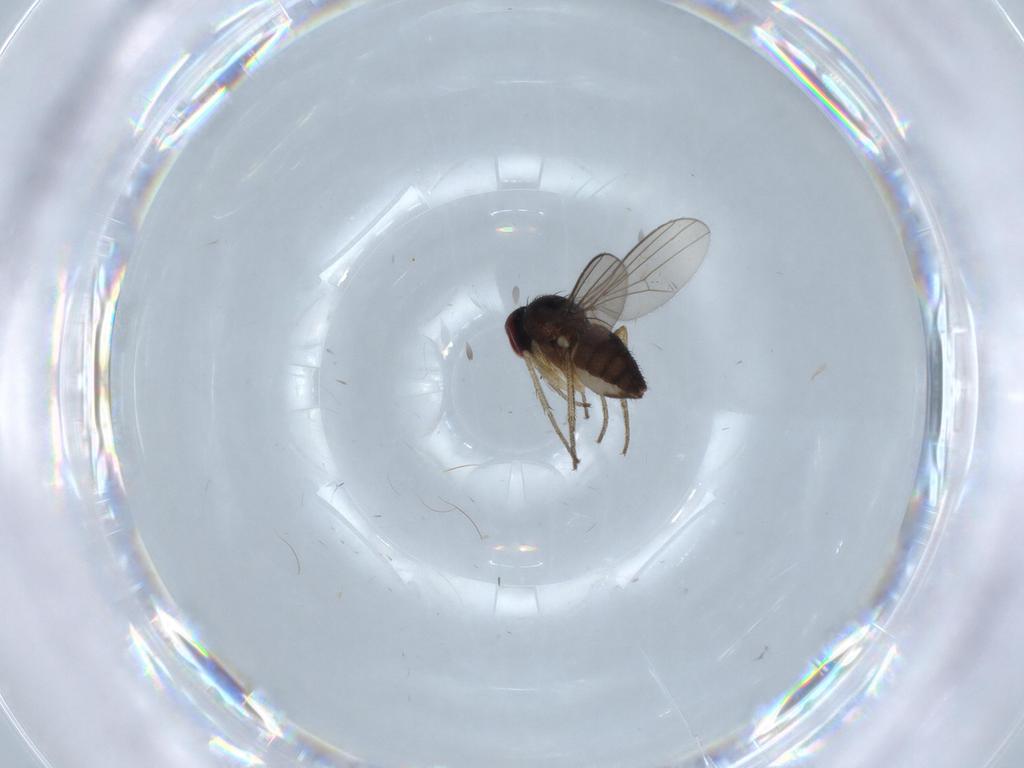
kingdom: Animalia
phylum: Arthropoda
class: Insecta
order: Diptera
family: Dolichopodidae
